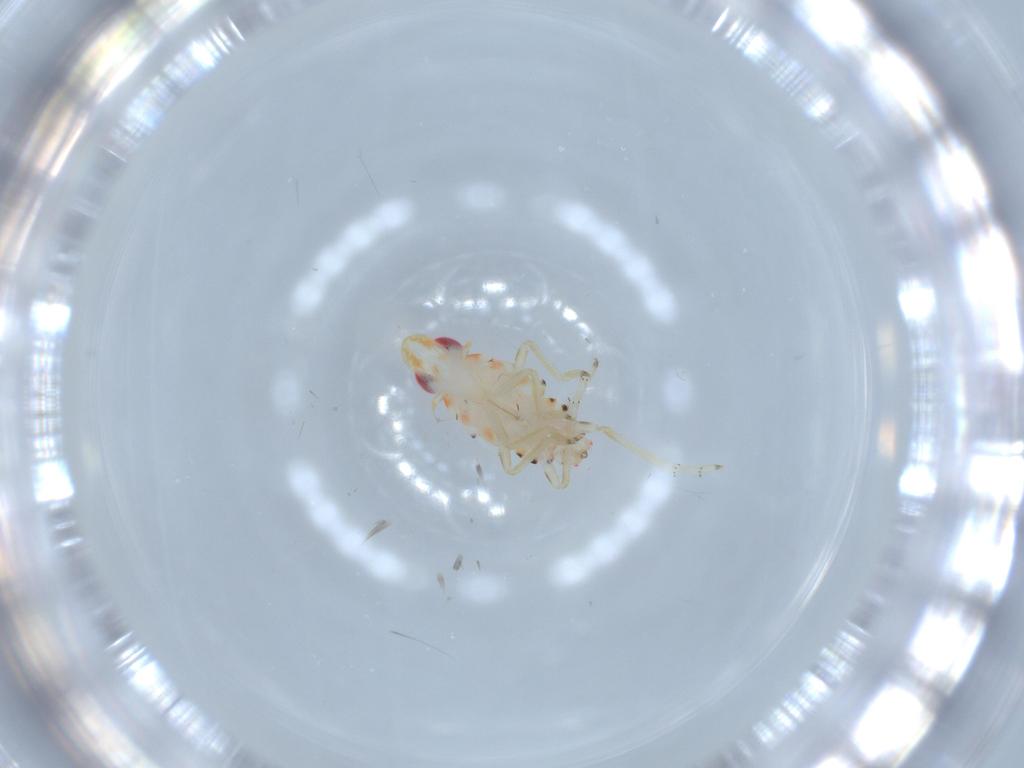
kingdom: Animalia
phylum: Arthropoda
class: Insecta
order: Hemiptera
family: Tropiduchidae
